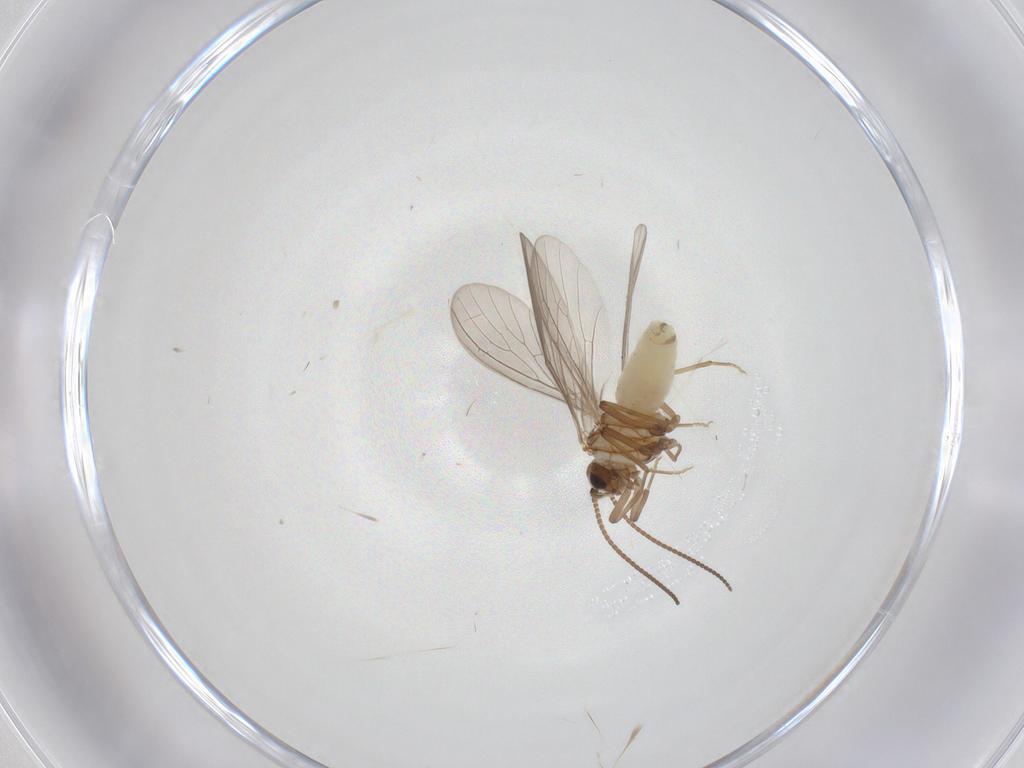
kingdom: Animalia
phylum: Arthropoda
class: Insecta
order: Neuroptera
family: Coniopterygidae
